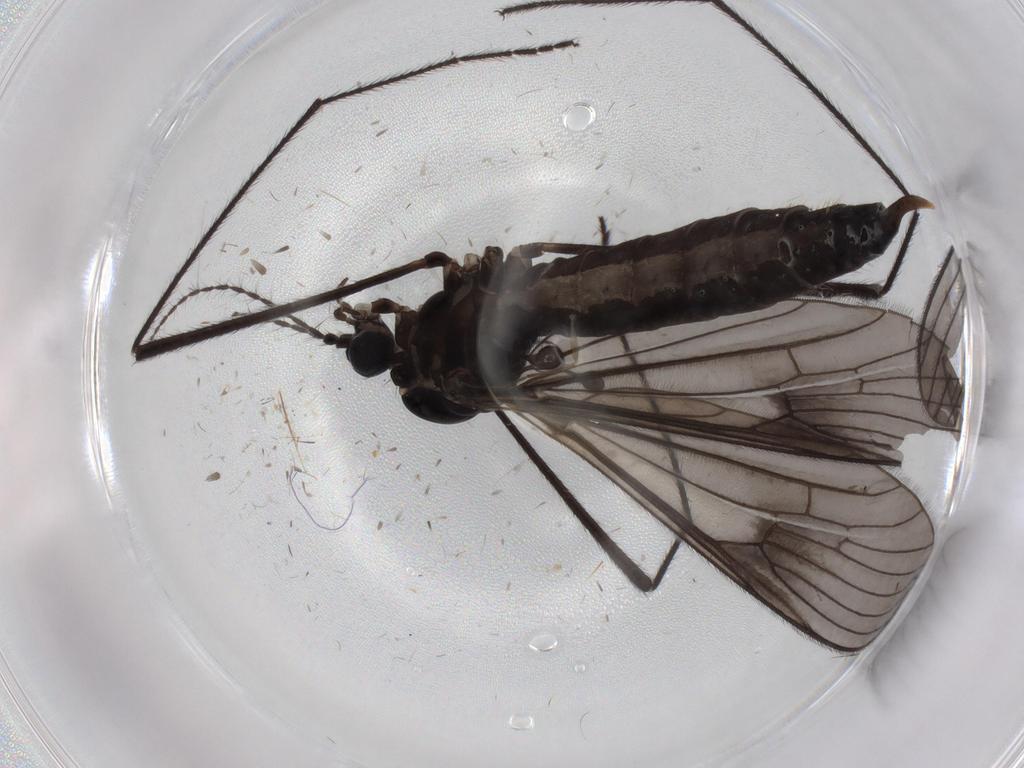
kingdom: Animalia
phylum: Arthropoda
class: Insecta
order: Diptera
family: Limoniidae
